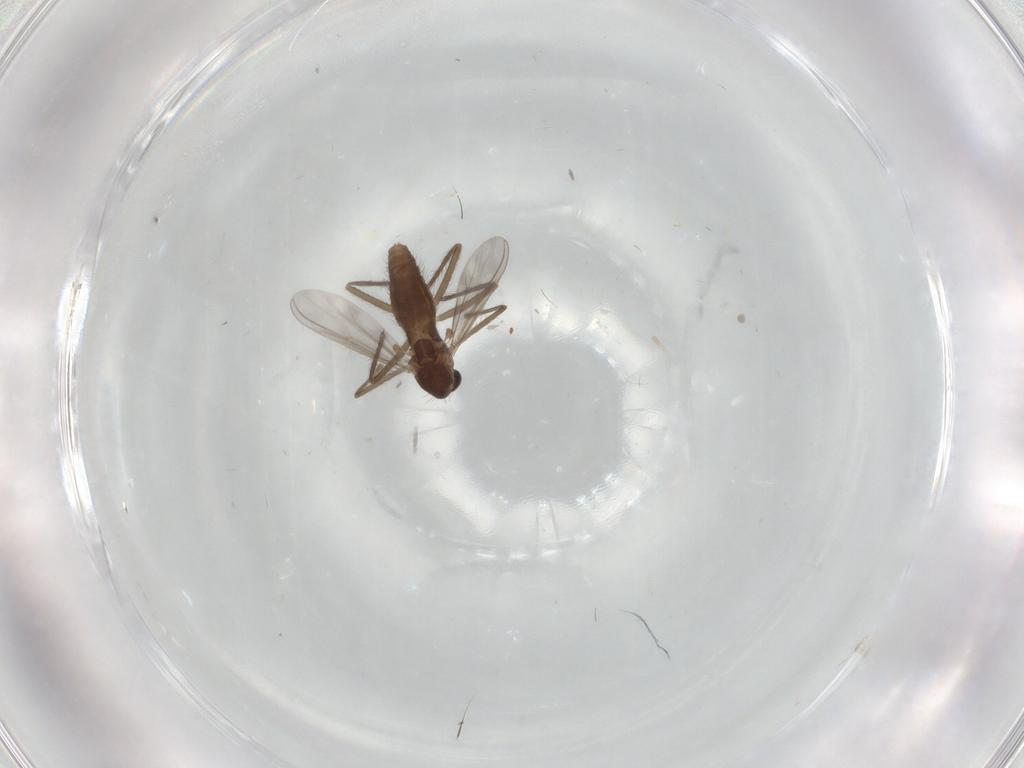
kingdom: Animalia
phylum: Arthropoda
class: Insecta
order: Diptera
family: Chironomidae
